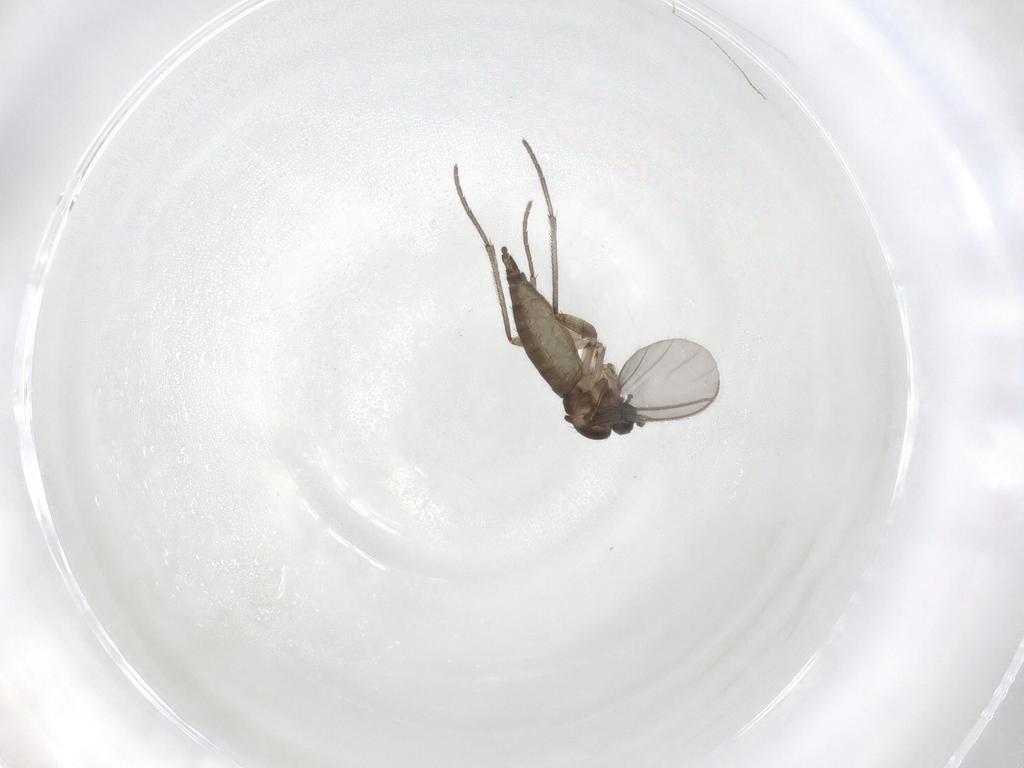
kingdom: Animalia
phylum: Arthropoda
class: Insecta
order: Diptera
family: Sciaridae
